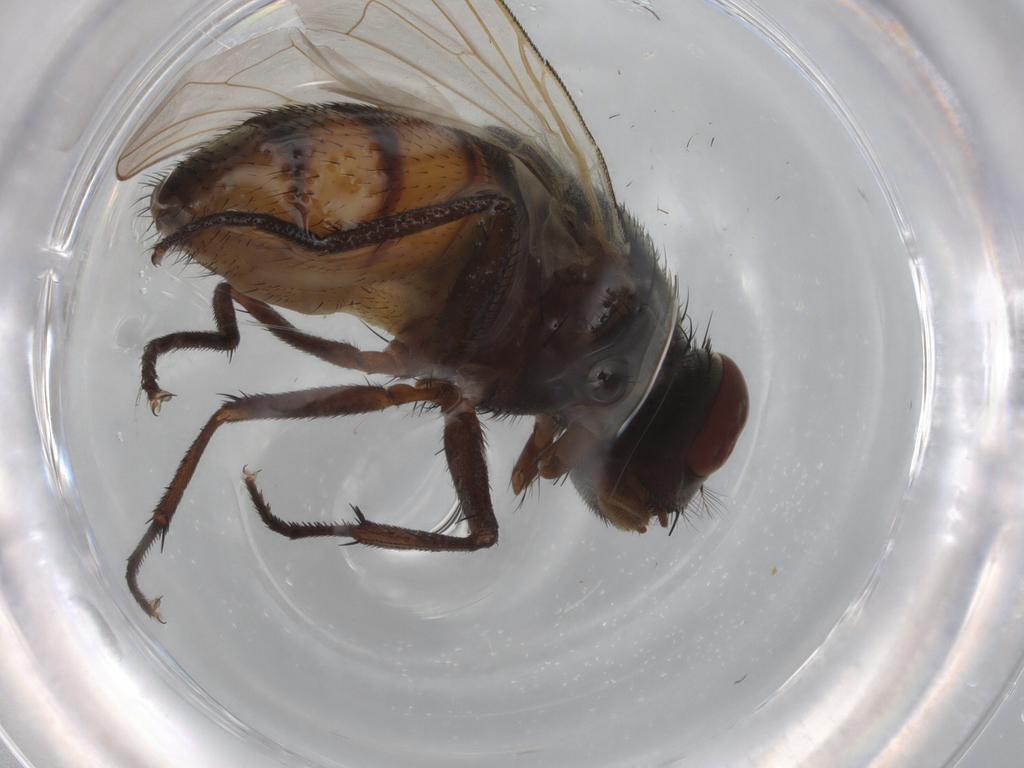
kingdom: Animalia
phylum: Arthropoda
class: Insecta
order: Diptera
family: Muscidae
